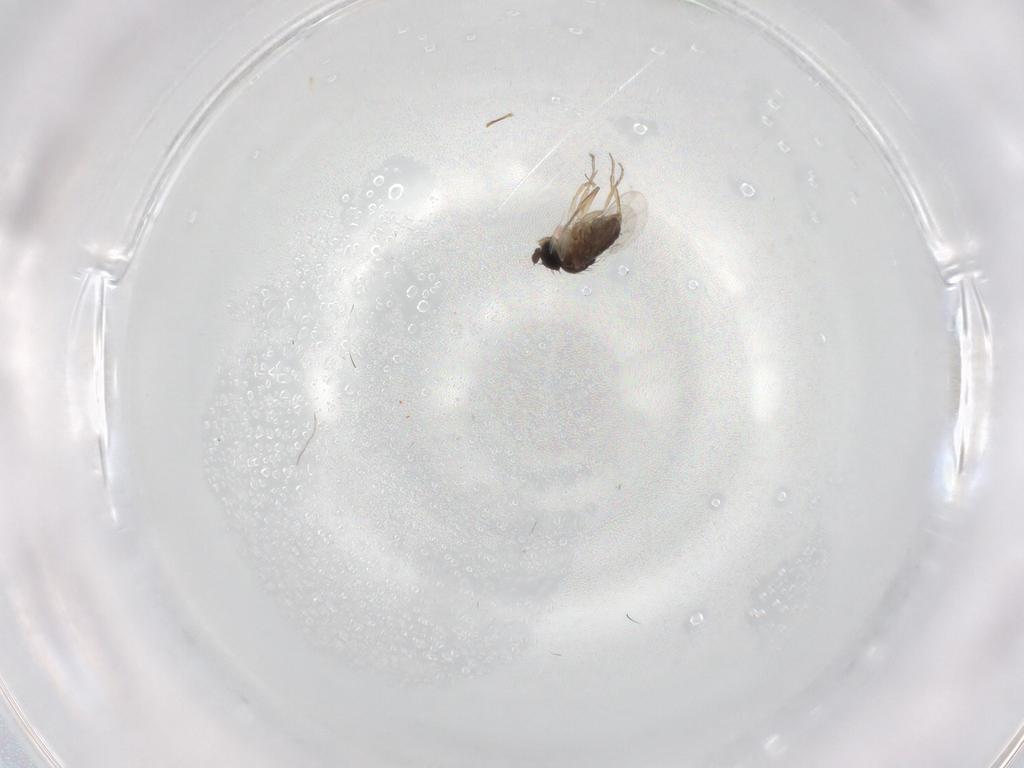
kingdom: Animalia
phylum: Arthropoda
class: Insecta
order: Diptera
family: Phoridae
